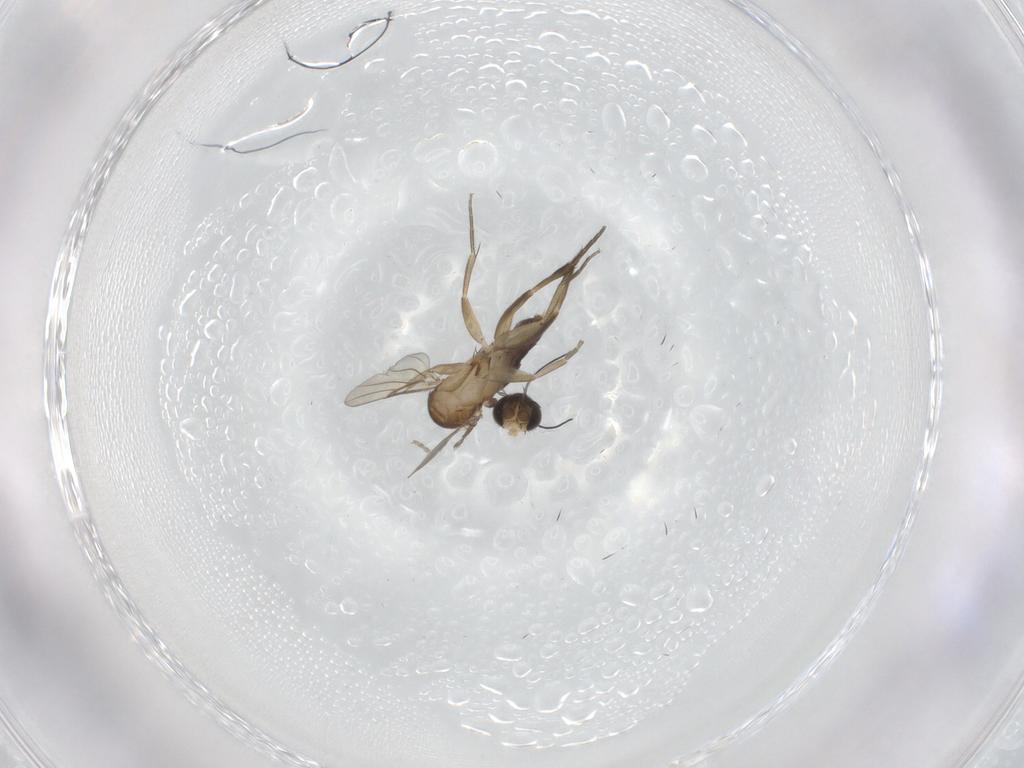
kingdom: Animalia
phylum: Arthropoda
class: Insecta
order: Diptera
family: Phoridae
